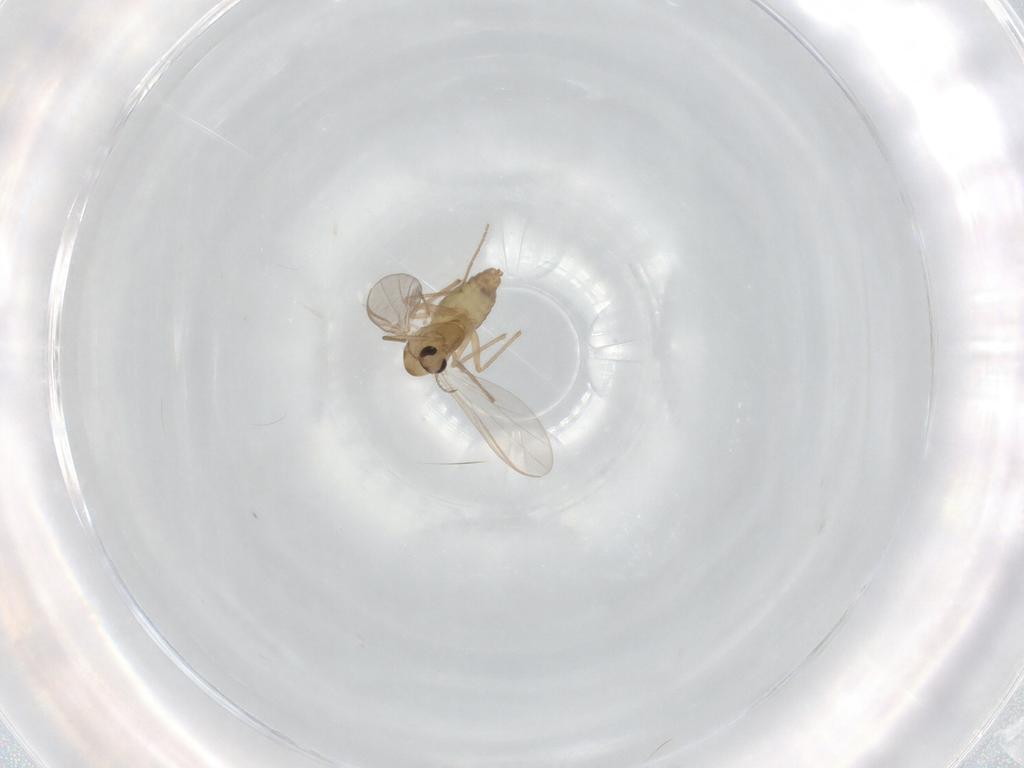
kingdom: Animalia
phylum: Arthropoda
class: Insecta
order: Diptera
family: Chironomidae
